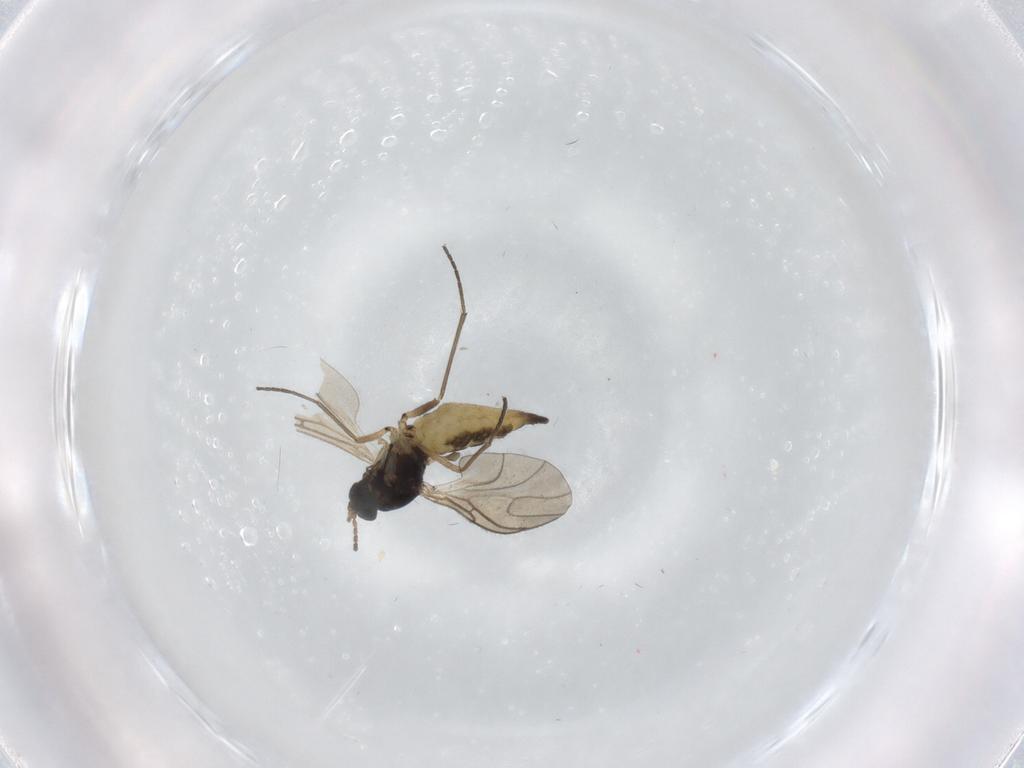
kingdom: Animalia
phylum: Arthropoda
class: Insecta
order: Diptera
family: Sciaridae
